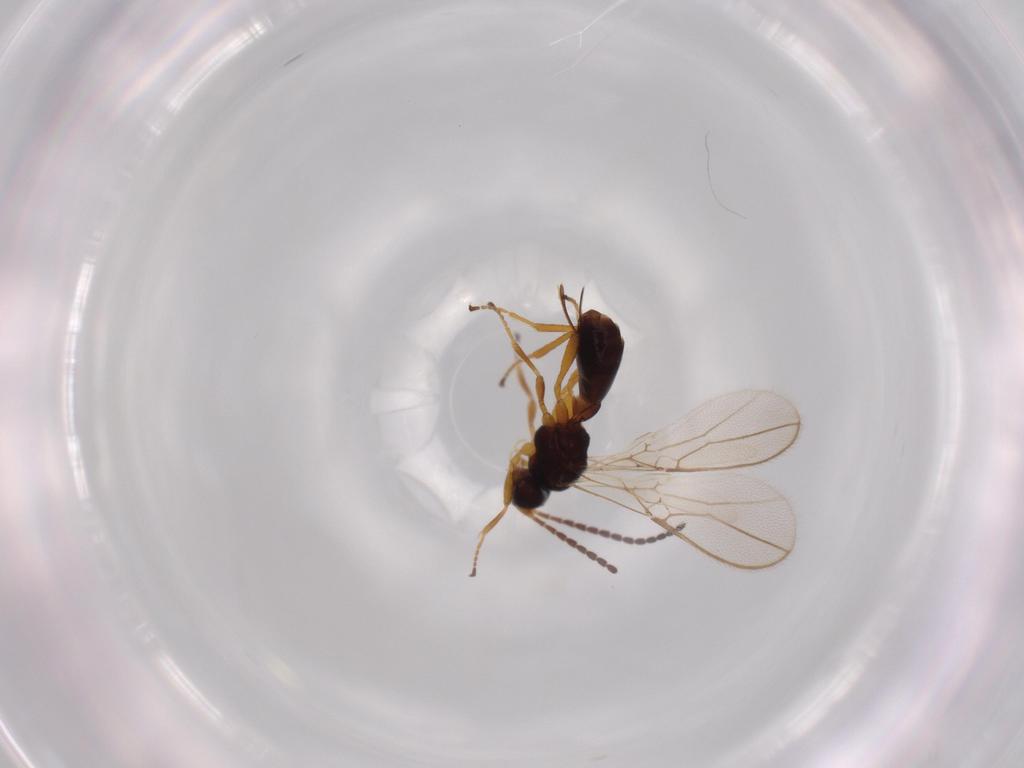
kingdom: Animalia
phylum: Arthropoda
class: Insecta
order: Hymenoptera
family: Braconidae
